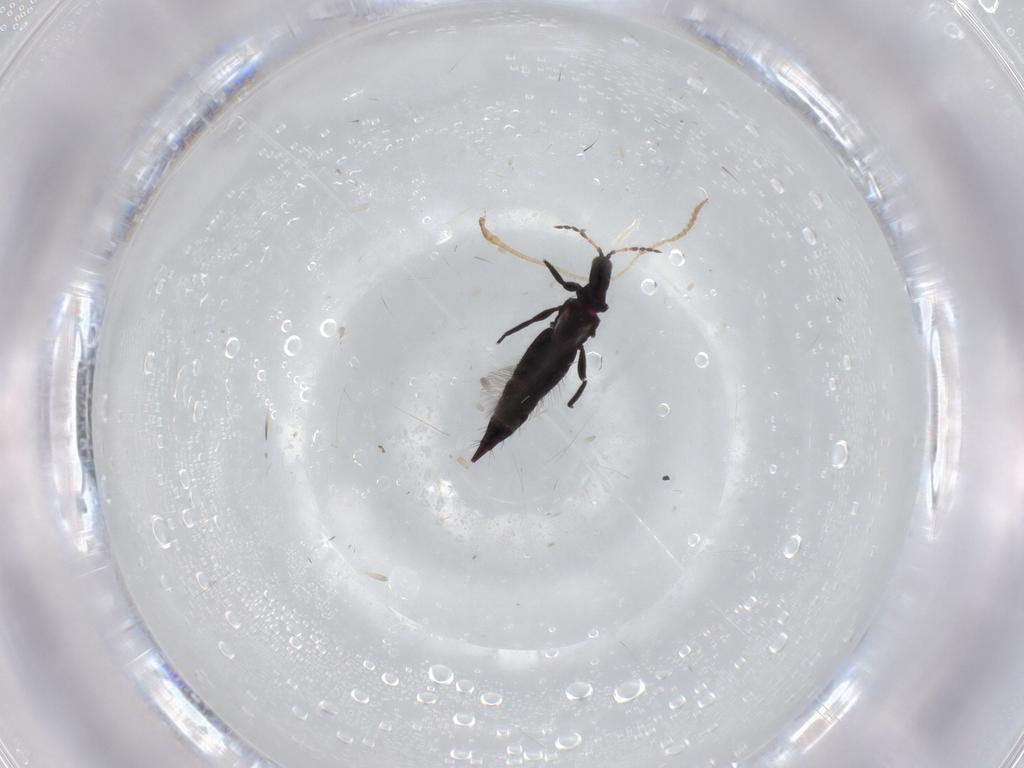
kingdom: Animalia
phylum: Arthropoda
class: Insecta
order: Thysanoptera
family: Phlaeothripidae
